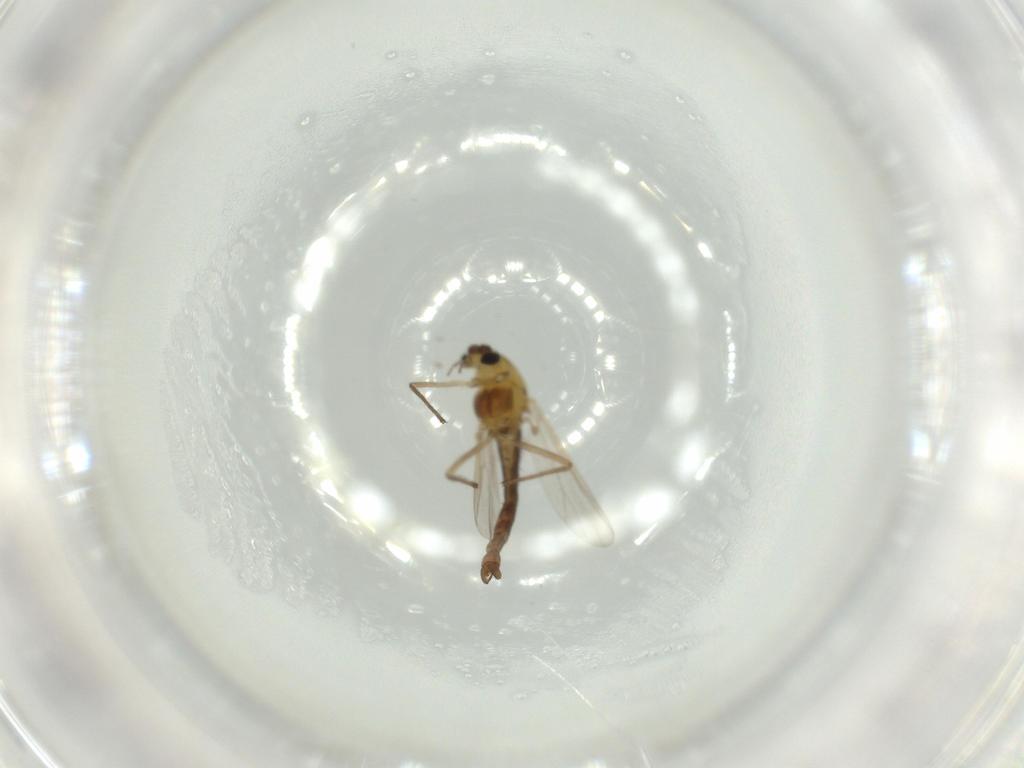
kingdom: Animalia
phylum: Arthropoda
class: Insecta
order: Diptera
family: Chironomidae
